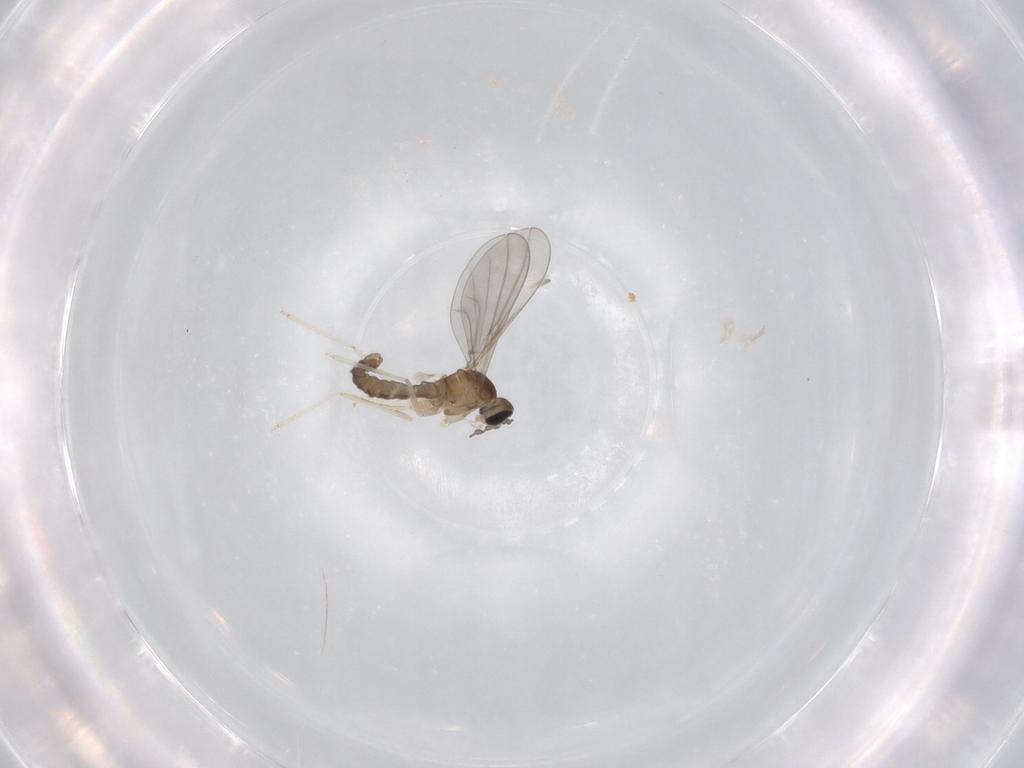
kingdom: Animalia
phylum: Arthropoda
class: Insecta
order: Diptera
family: Cecidomyiidae
